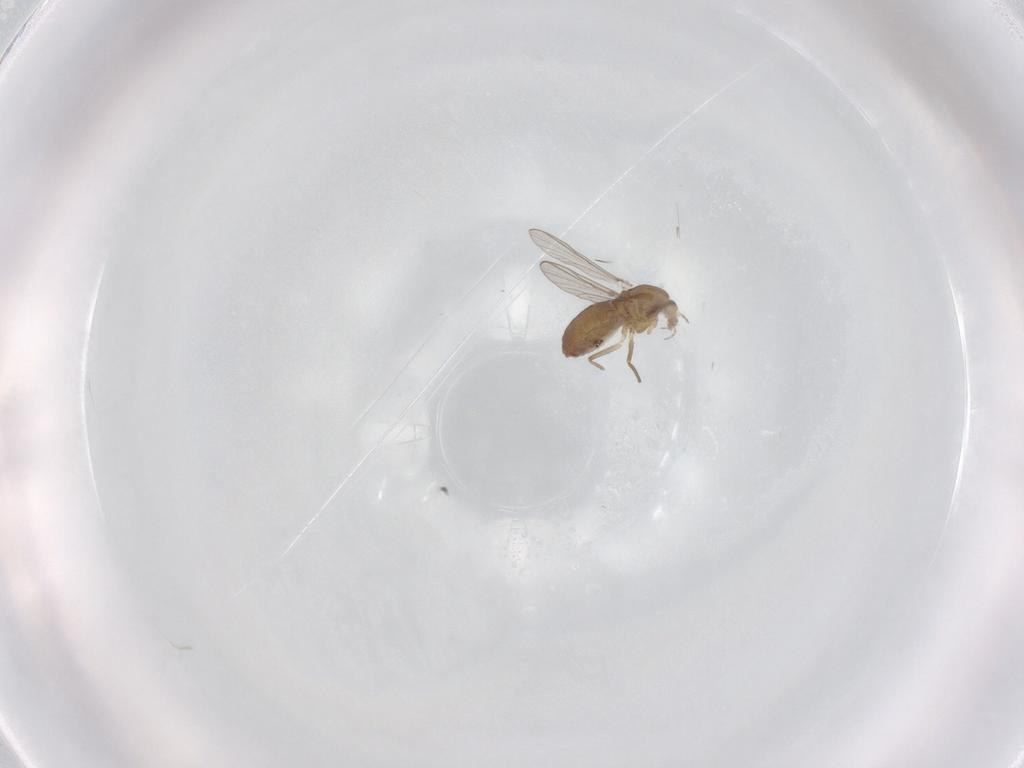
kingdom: Animalia
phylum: Arthropoda
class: Insecta
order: Diptera
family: Chironomidae
